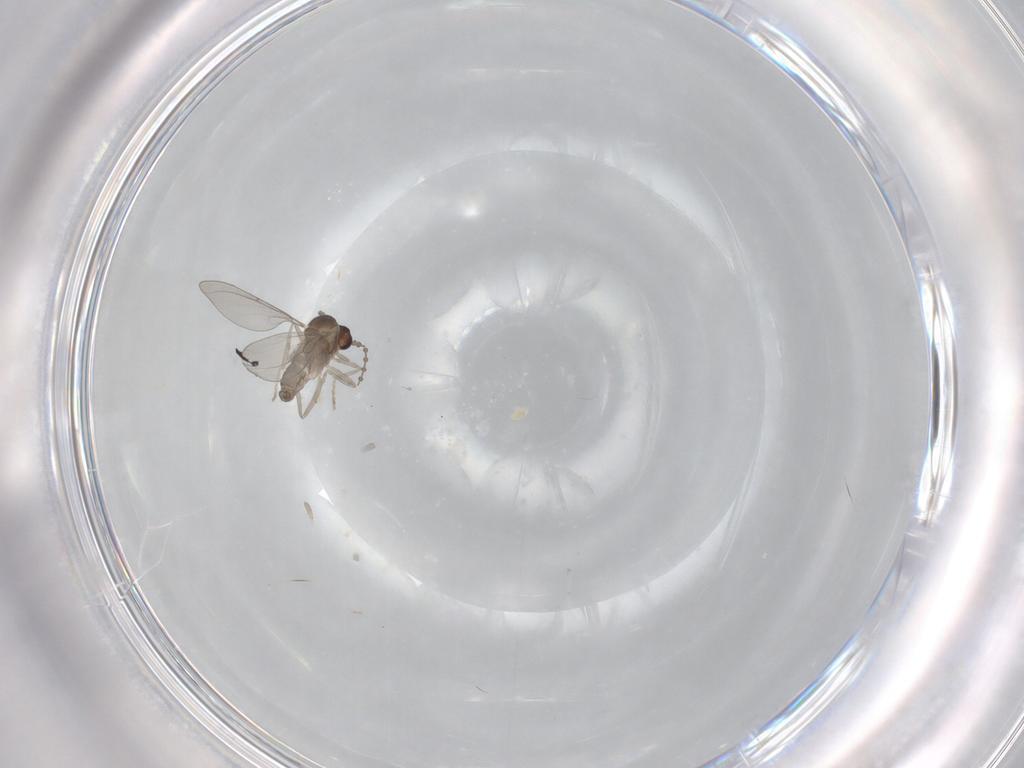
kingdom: Animalia
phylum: Arthropoda
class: Insecta
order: Diptera
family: Cecidomyiidae
